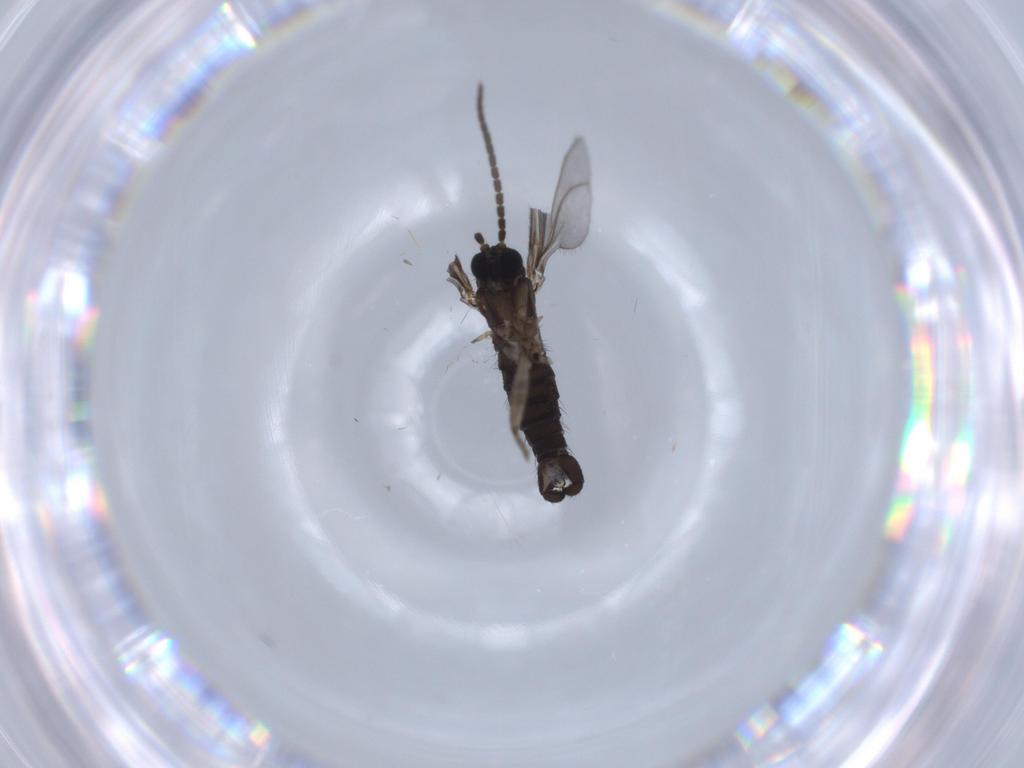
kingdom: Animalia
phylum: Arthropoda
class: Insecta
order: Diptera
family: Sciaridae
